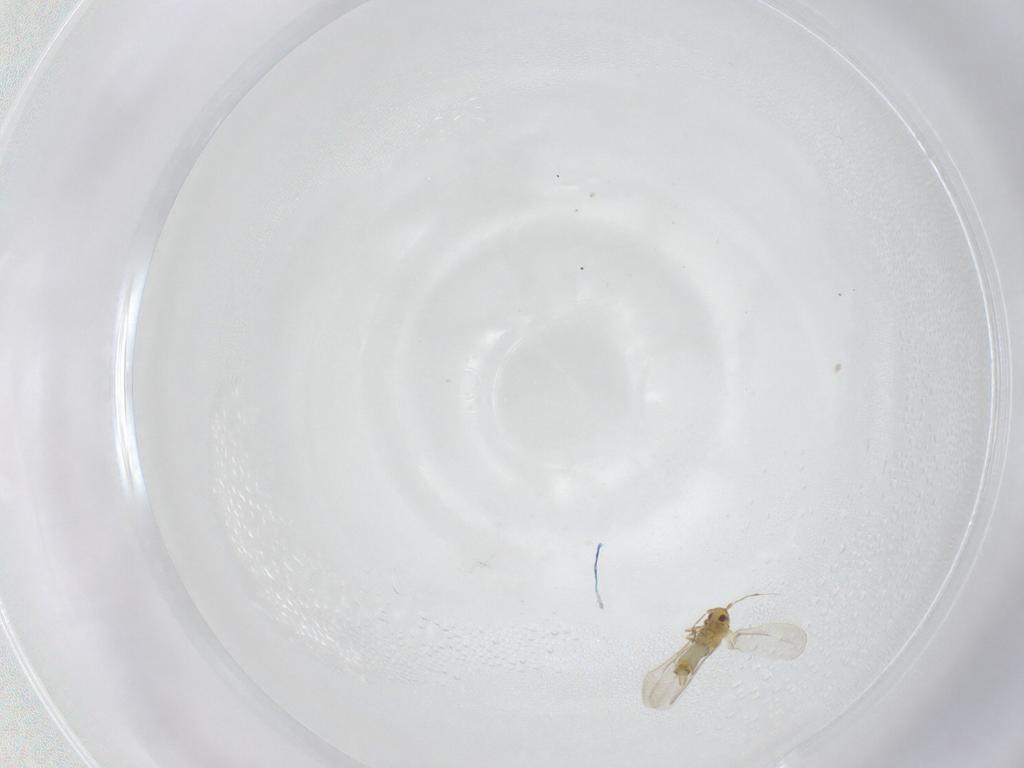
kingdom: Animalia
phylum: Arthropoda
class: Insecta
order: Hemiptera
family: Aleyrodidae
